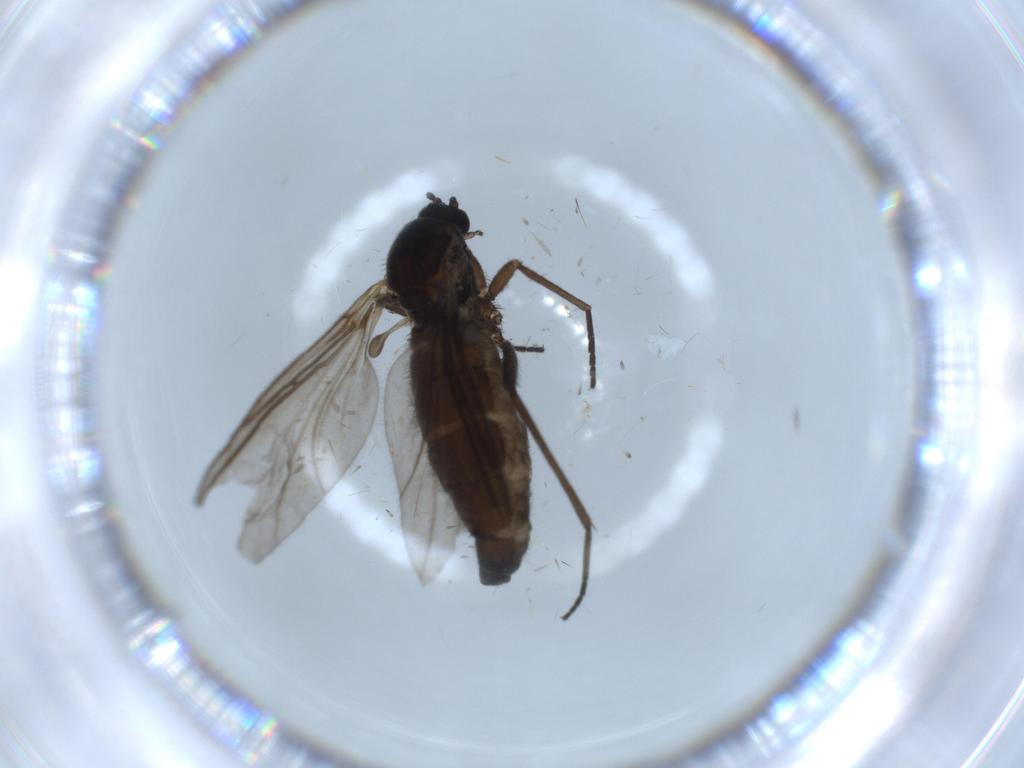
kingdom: Animalia
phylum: Arthropoda
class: Insecta
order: Diptera
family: Sciaridae
